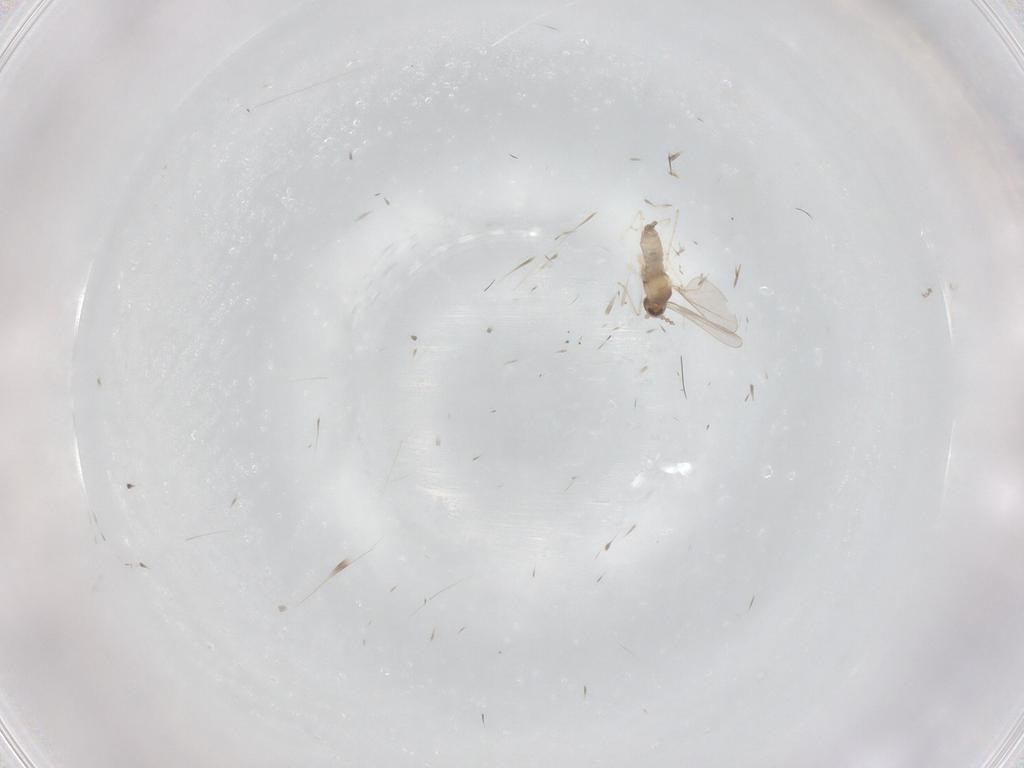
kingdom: Animalia
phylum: Arthropoda
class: Insecta
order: Diptera
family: Cecidomyiidae
